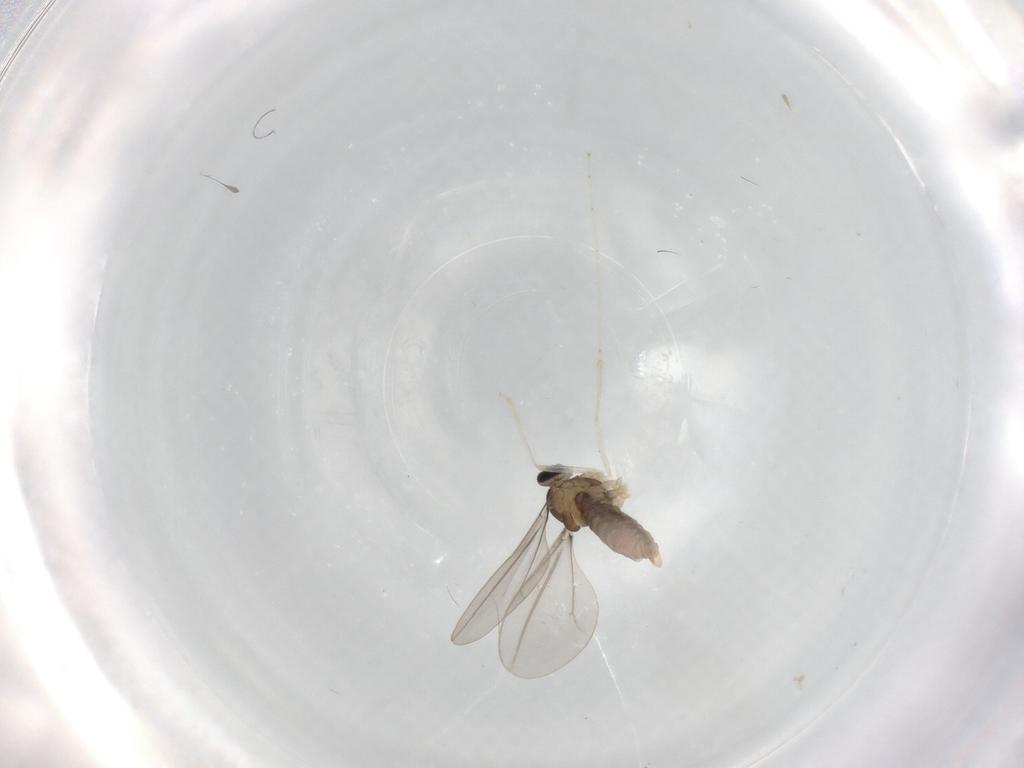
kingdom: Animalia
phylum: Arthropoda
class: Insecta
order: Diptera
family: Cecidomyiidae
